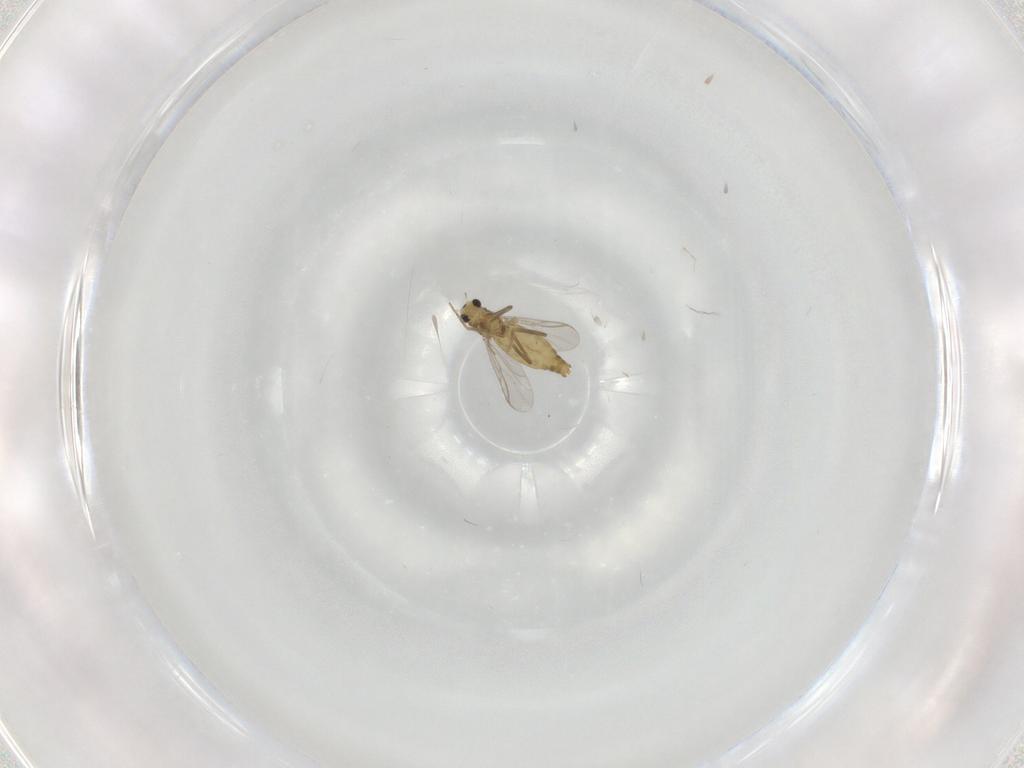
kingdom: Animalia
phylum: Arthropoda
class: Insecta
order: Diptera
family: Chironomidae
